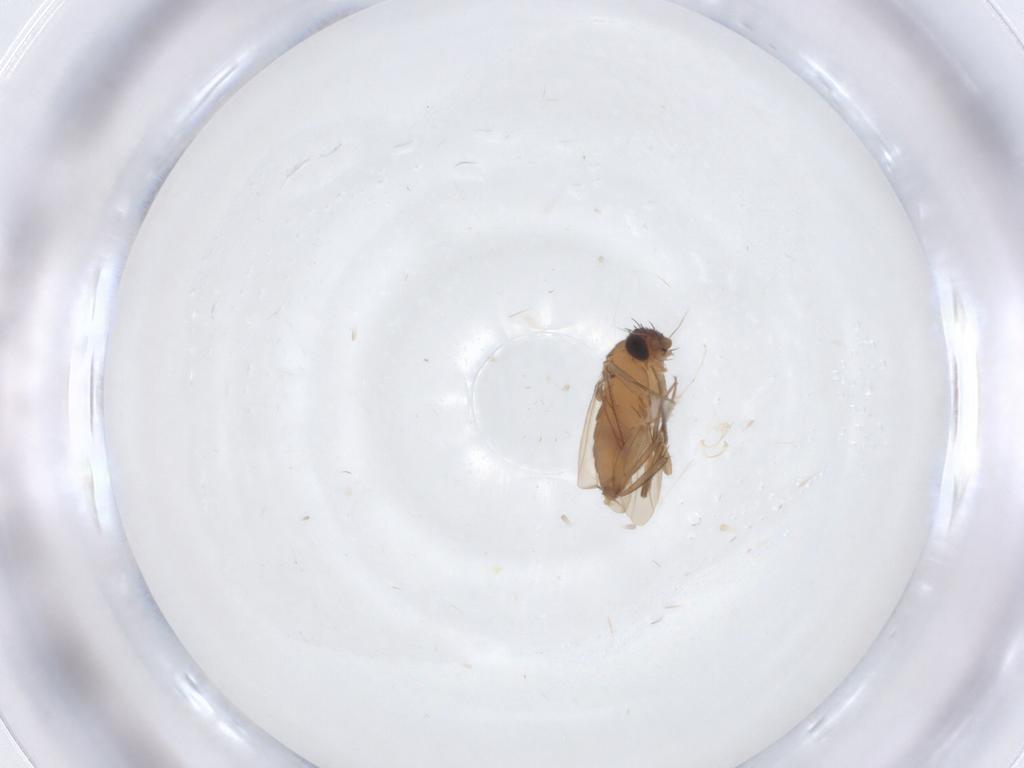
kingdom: Animalia
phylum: Arthropoda
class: Insecta
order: Diptera
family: Phoridae
